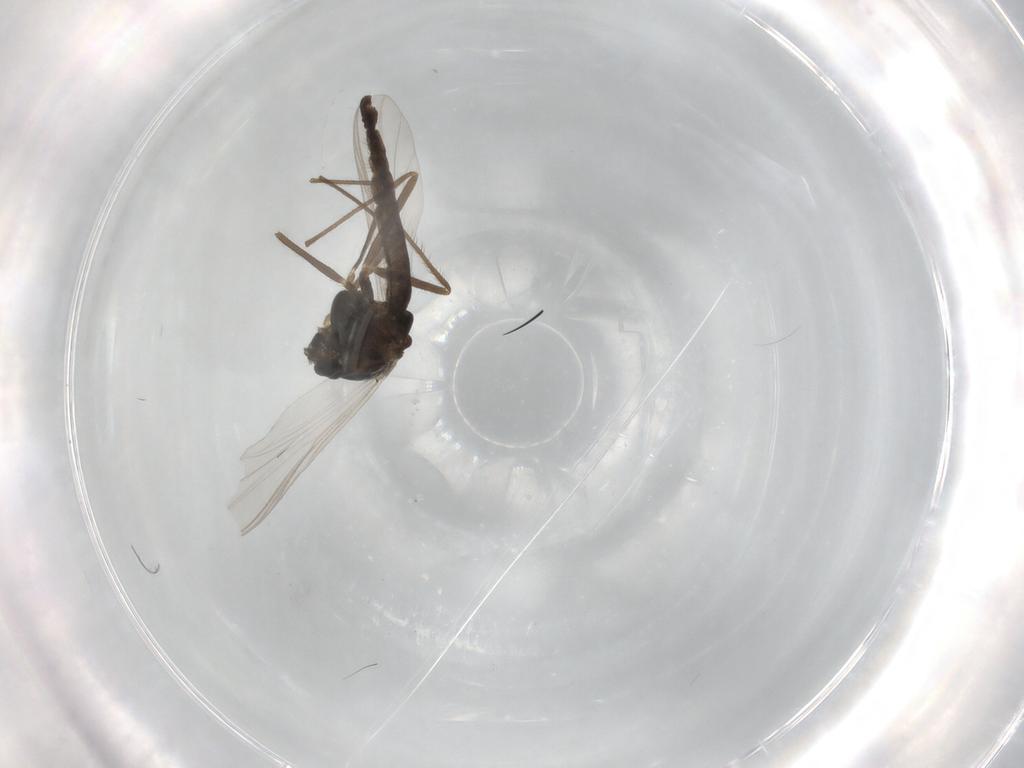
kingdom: Animalia
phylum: Arthropoda
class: Insecta
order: Diptera
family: Chironomidae
